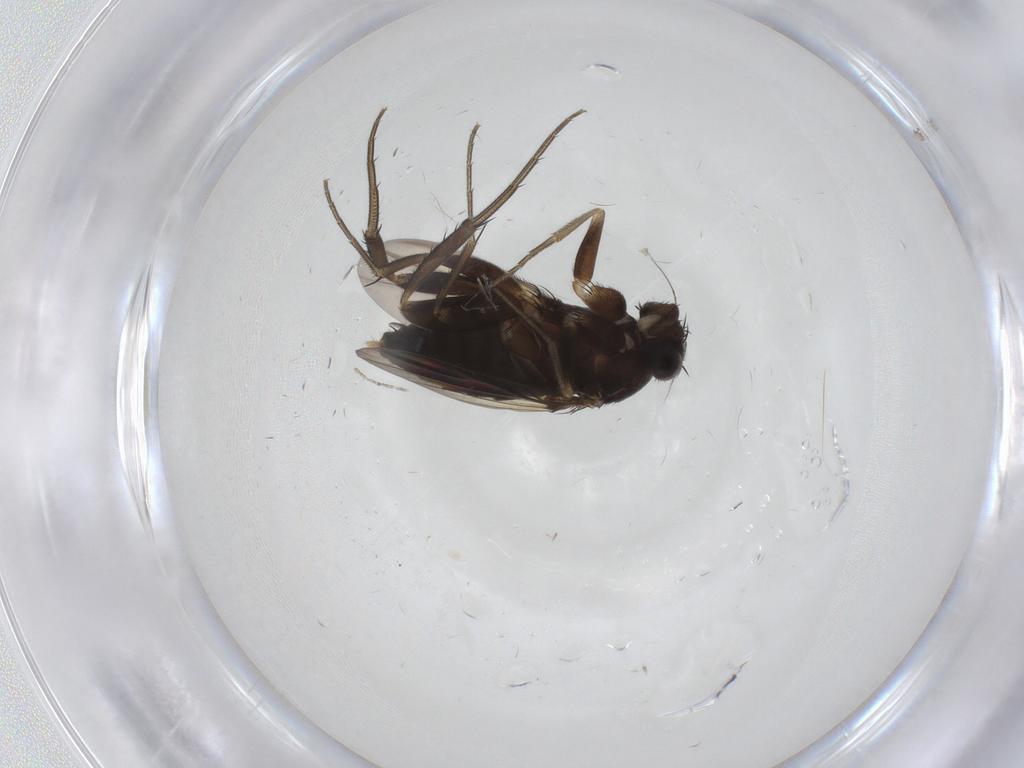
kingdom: Animalia
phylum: Arthropoda
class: Insecta
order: Diptera
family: Phoridae
